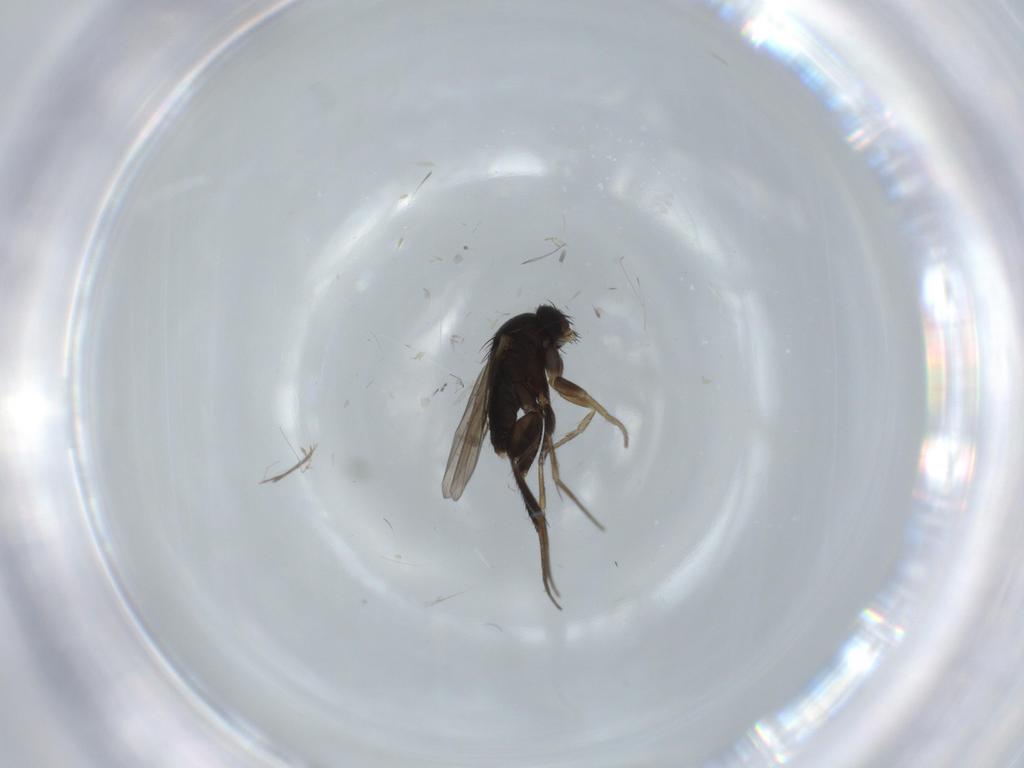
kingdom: Animalia
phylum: Arthropoda
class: Insecta
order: Diptera
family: Phoridae
